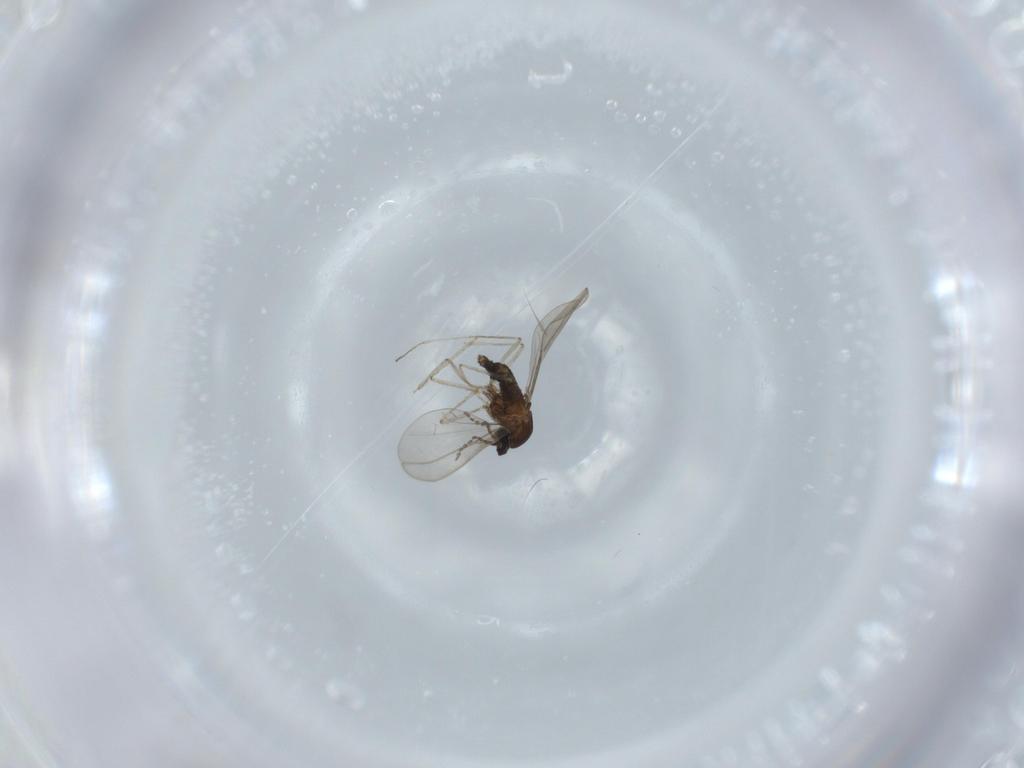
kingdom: Animalia
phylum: Arthropoda
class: Insecta
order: Diptera
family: Cecidomyiidae
